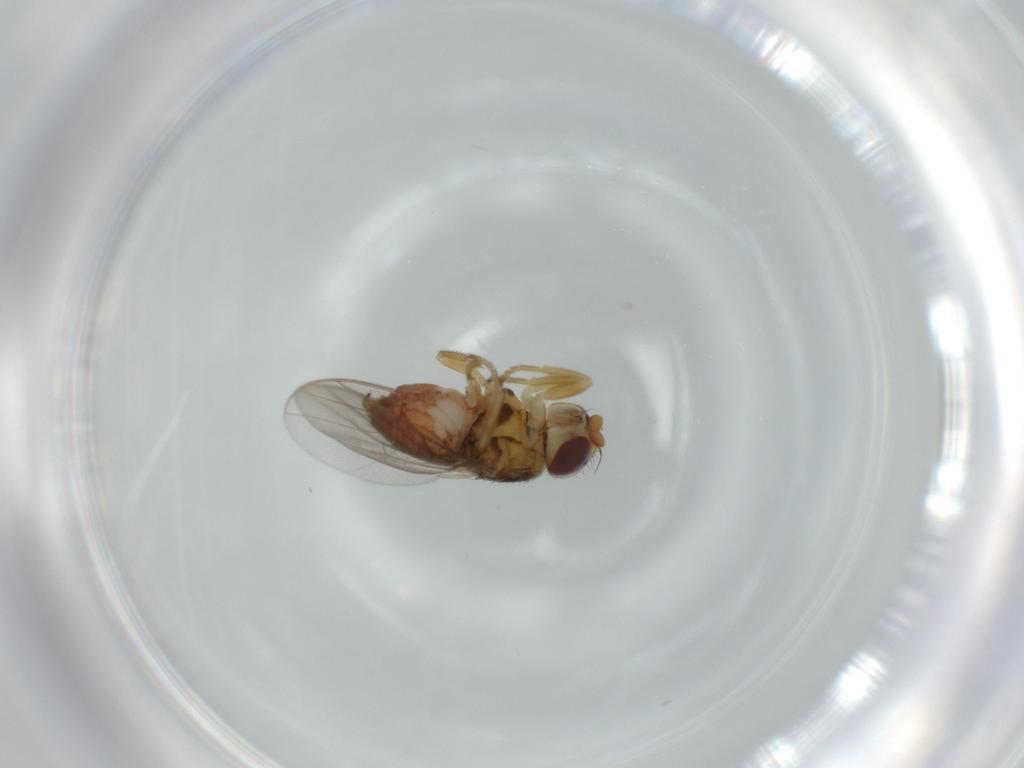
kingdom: Animalia
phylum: Arthropoda
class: Insecta
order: Diptera
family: Chloropidae
